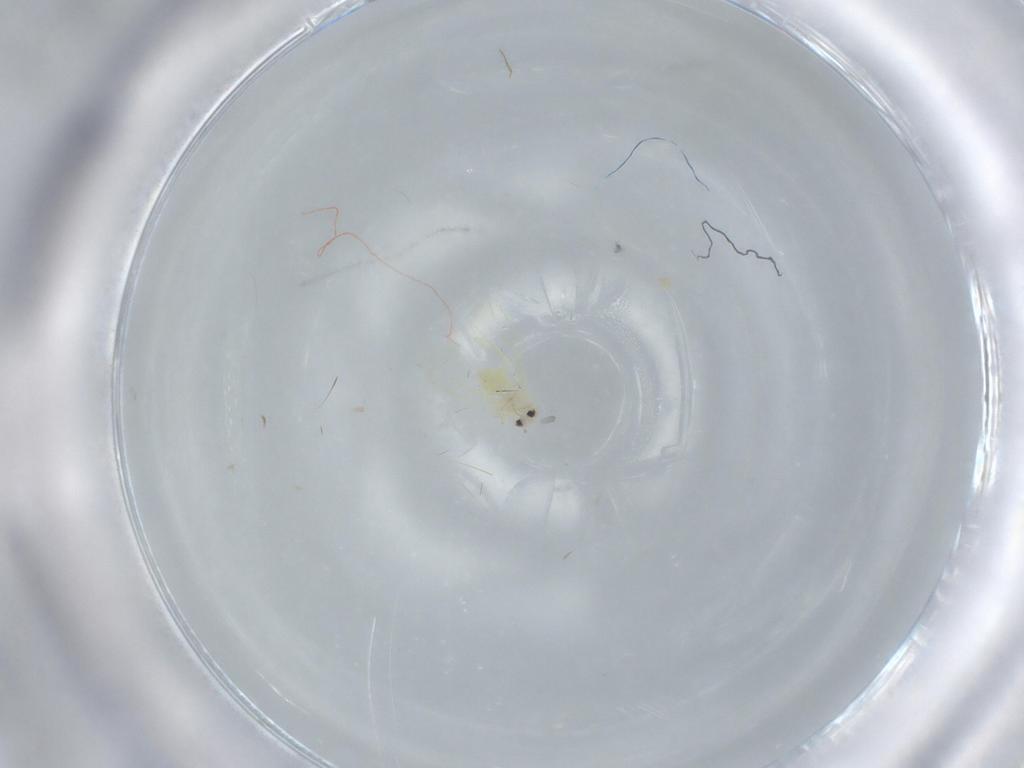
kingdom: Animalia
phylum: Arthropoda
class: Insecta
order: Hemiptera
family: Aleyrodidae
